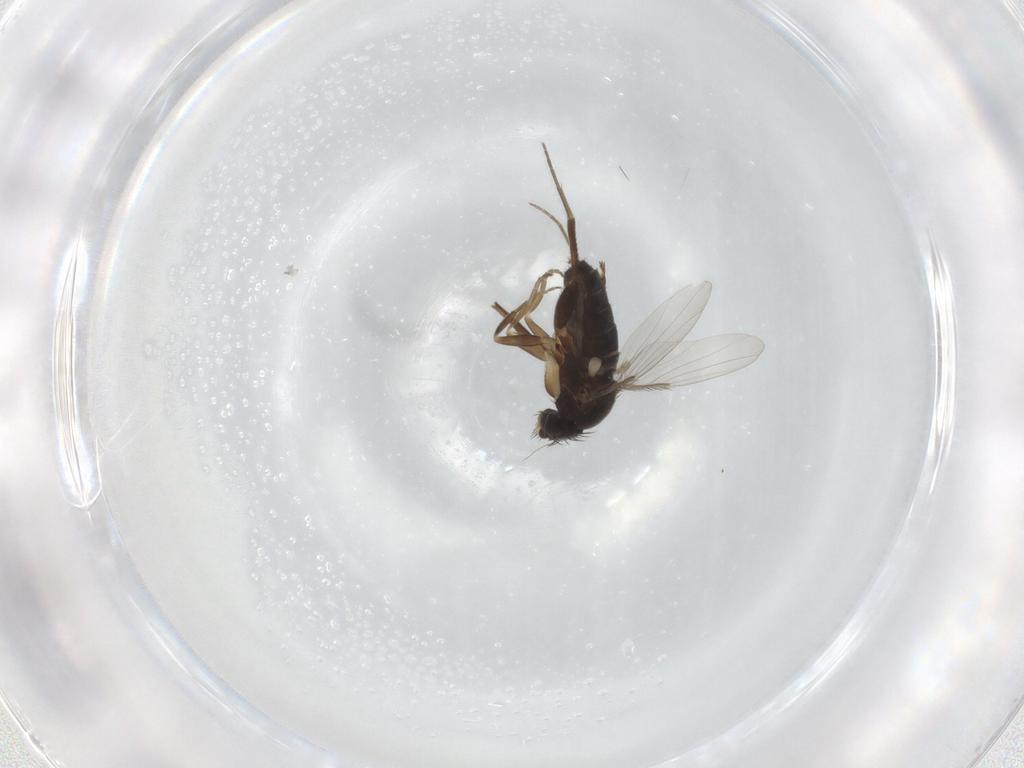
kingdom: Animalia
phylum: Arthropoda
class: Insecta
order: Diptera
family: Phoridae
